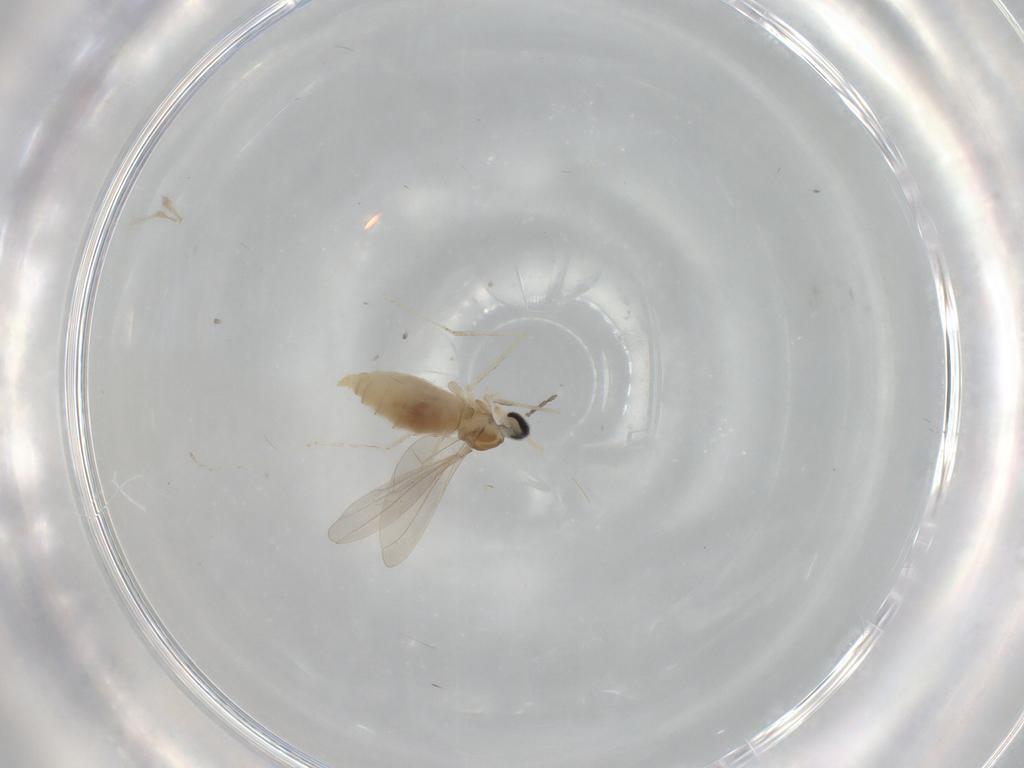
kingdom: Animalia
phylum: Arthropoda
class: Insecta
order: Diptera
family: Cecidomyiidae
